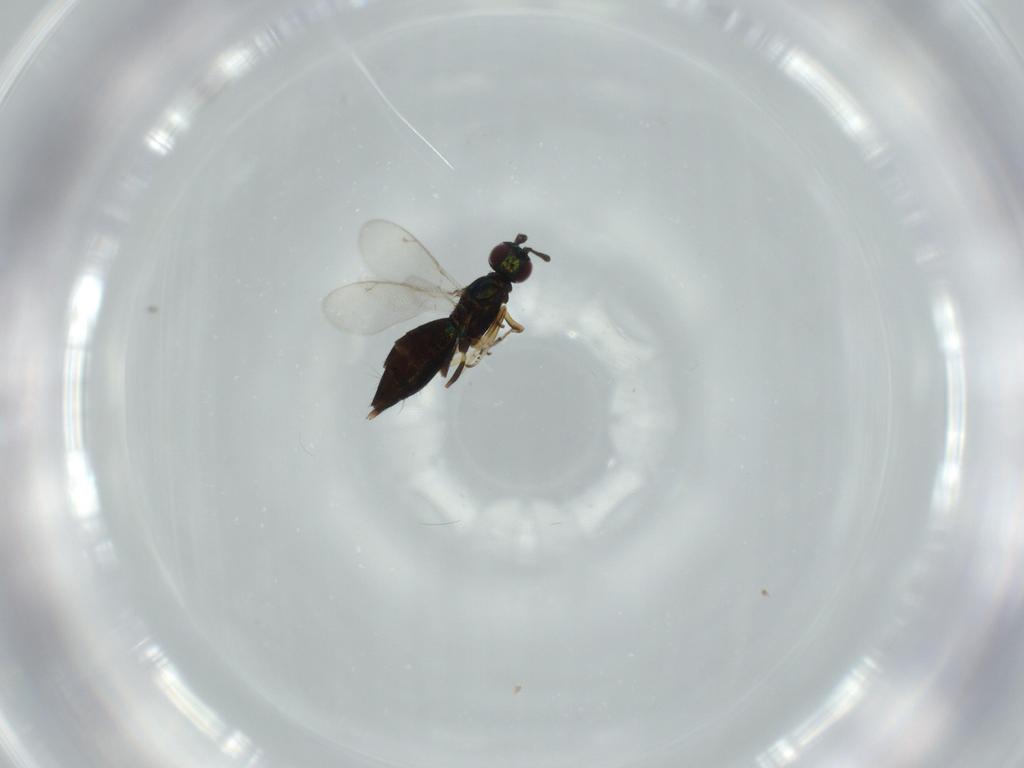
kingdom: Animalia
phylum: Arthropoda
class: Insecta
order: Hymenoptera
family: Eupelmidae
